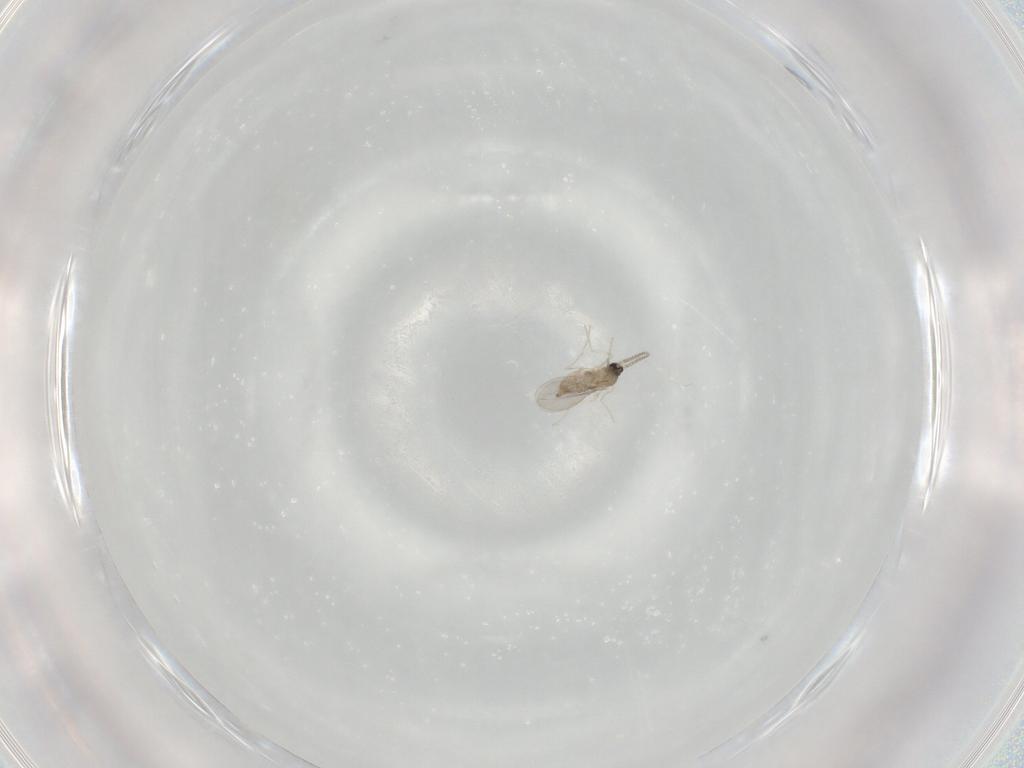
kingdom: Animalia
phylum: Arthropoda
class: Insecta
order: Diptera
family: Cecidomyiidae
